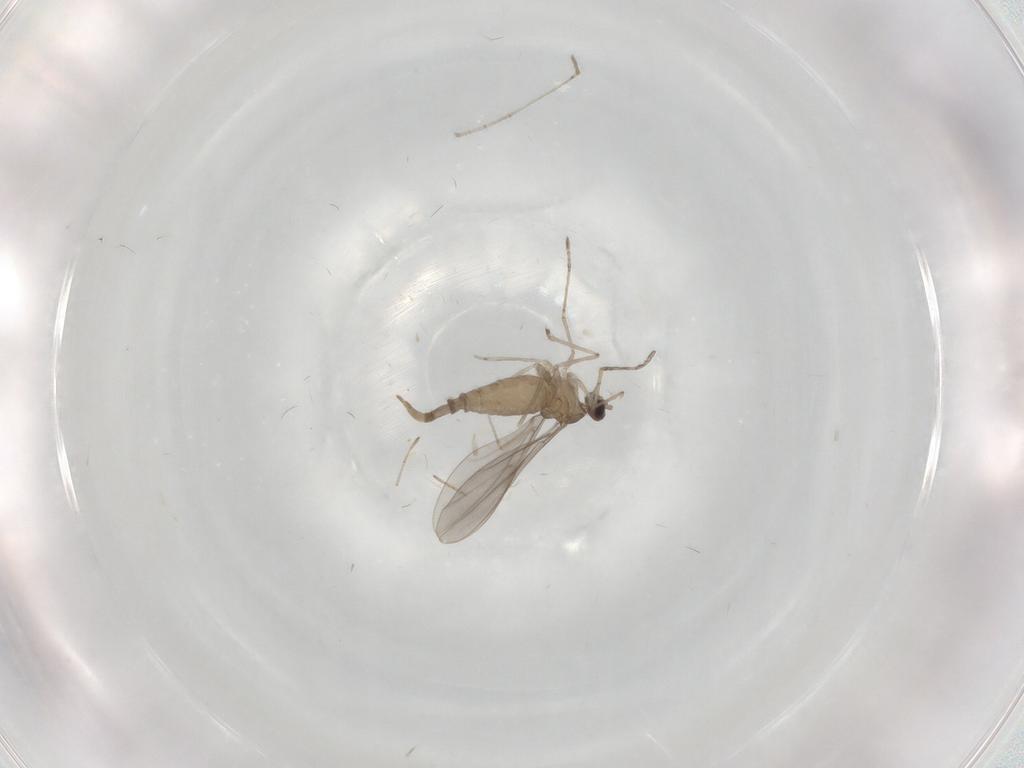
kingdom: Animalia
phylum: Arthropoda
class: Insecta
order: Diptera
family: Cecidomyiidae
